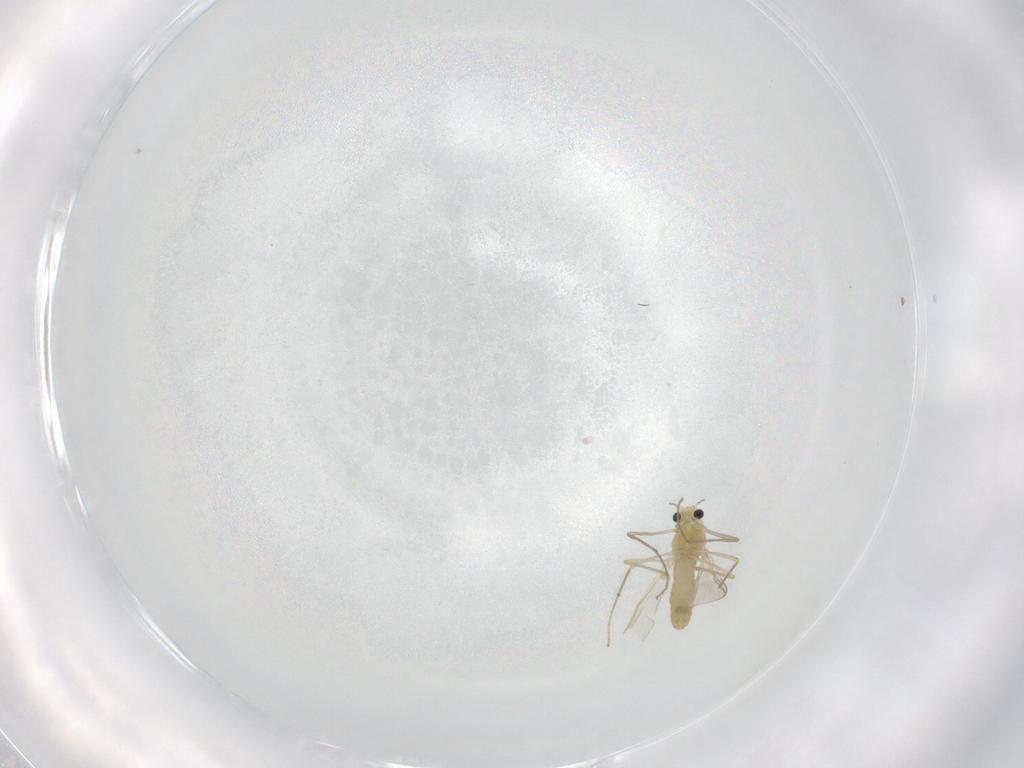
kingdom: Animalia
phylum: Arthropoda
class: Insecta
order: Diptera
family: Chironomidae
